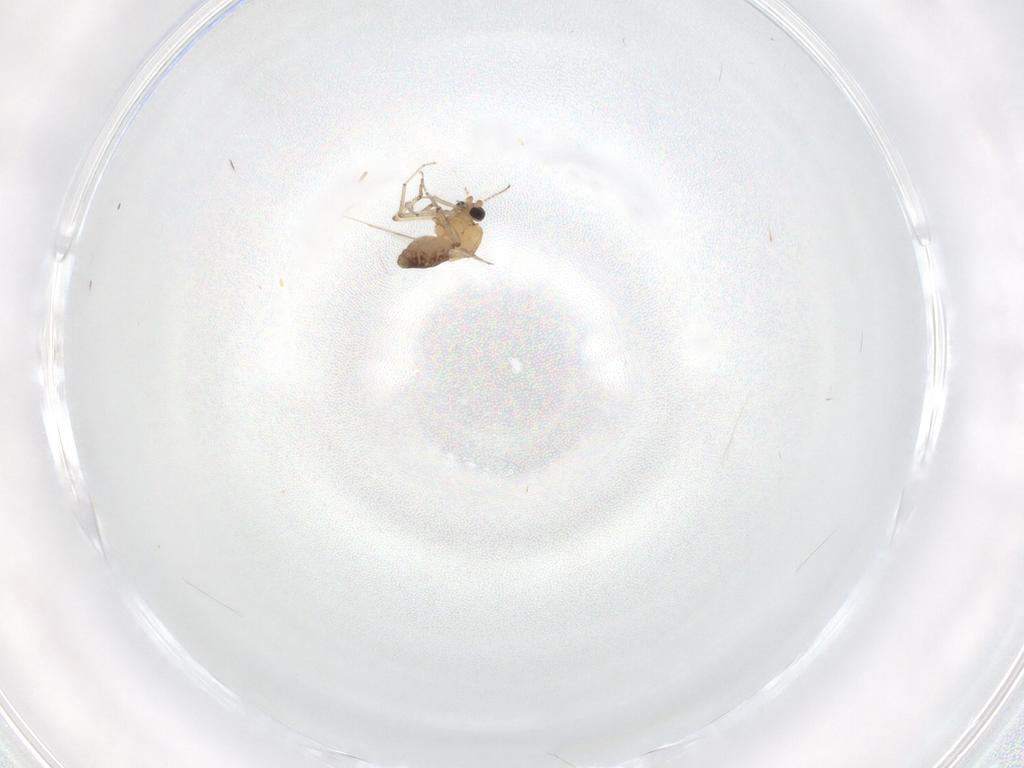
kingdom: Animalia
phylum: Arthropoda
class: Insecta
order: Diptera
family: Ceratopogonidae
